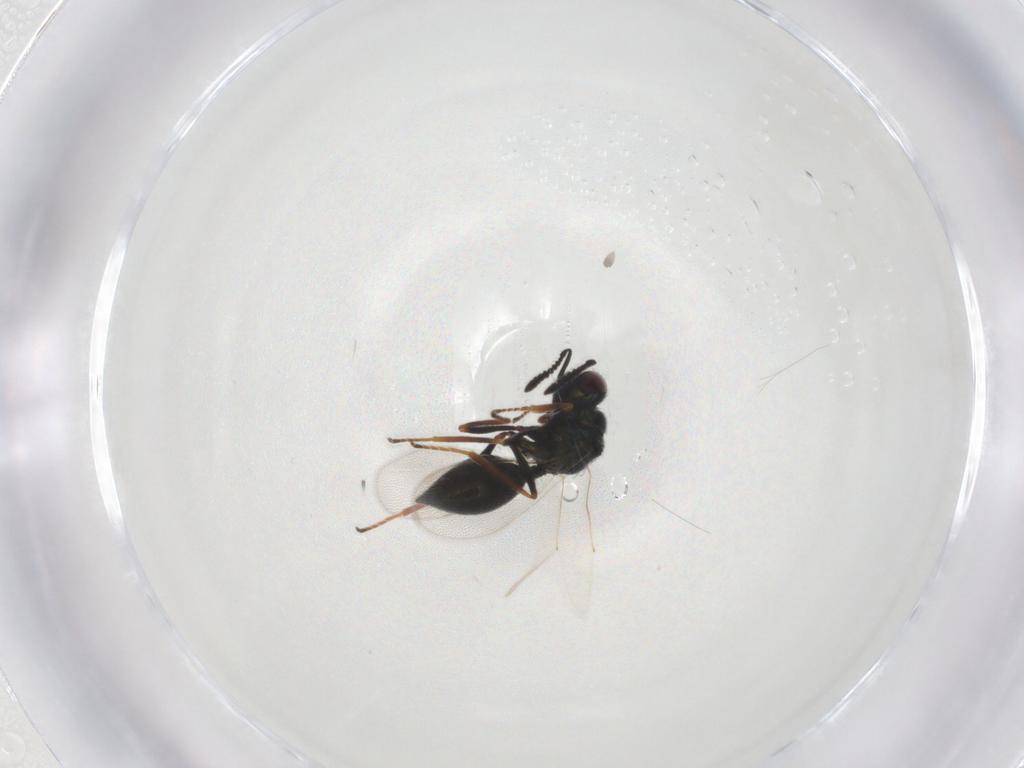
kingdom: Animalia
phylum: Arthropoda
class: Insecta
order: Hymenoptera
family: Chalcidoidea_incertae_sedis
